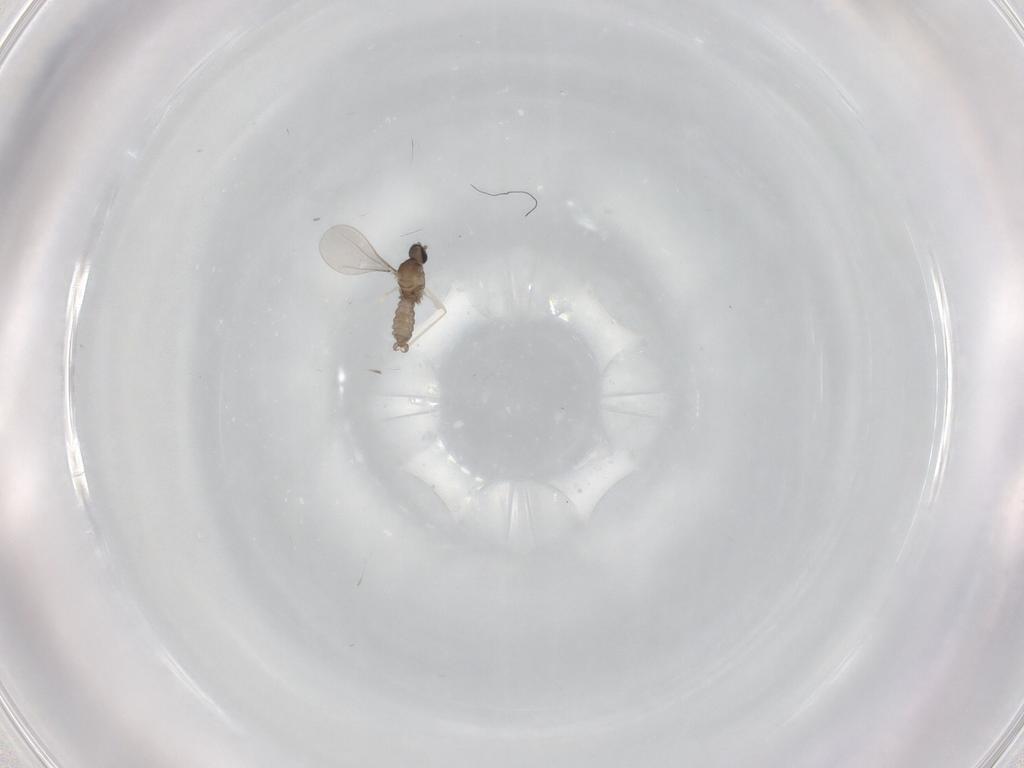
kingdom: Animalia
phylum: Arthropoda
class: Insecta
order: Diptera
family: Sciaridae
